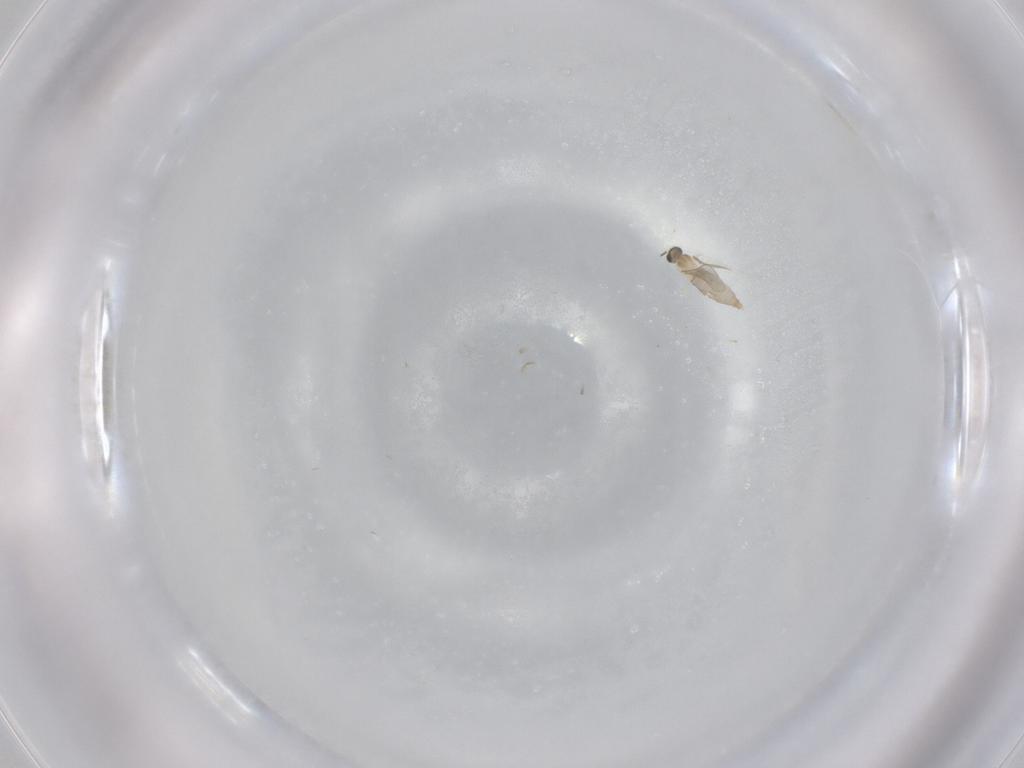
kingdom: Animalia
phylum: Arthropoda
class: Insecta
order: Diptera
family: Cecidomyiidae
